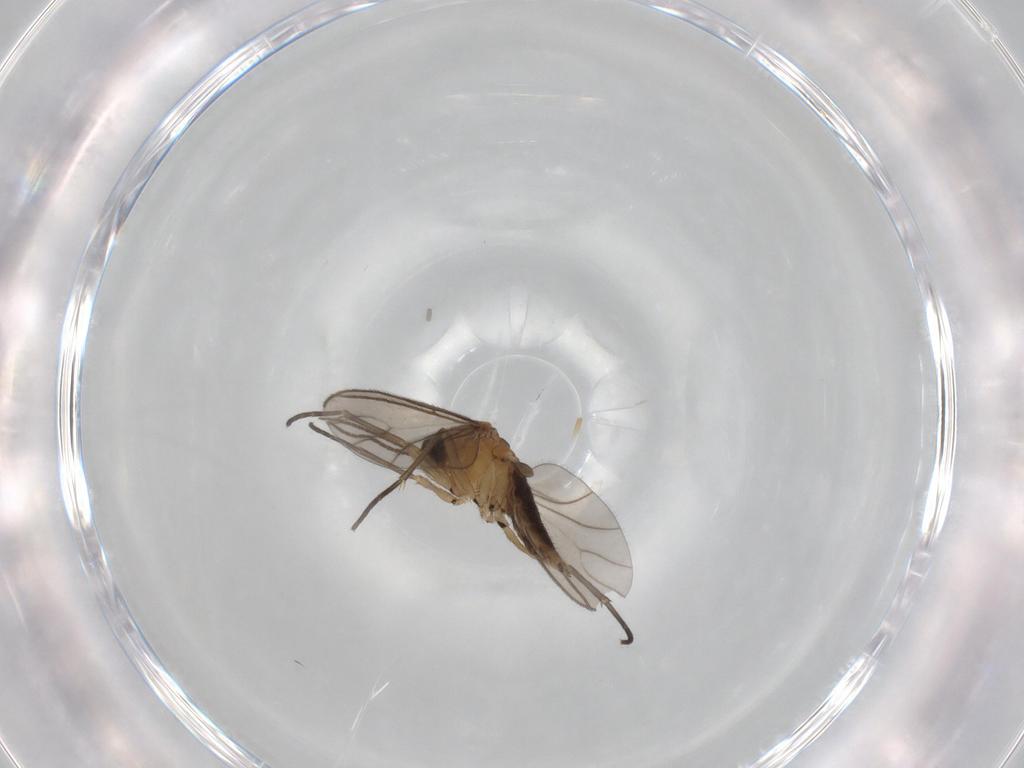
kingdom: Animalia
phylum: Arthropoda
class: Insecta
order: Diptera
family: Sciaridae
